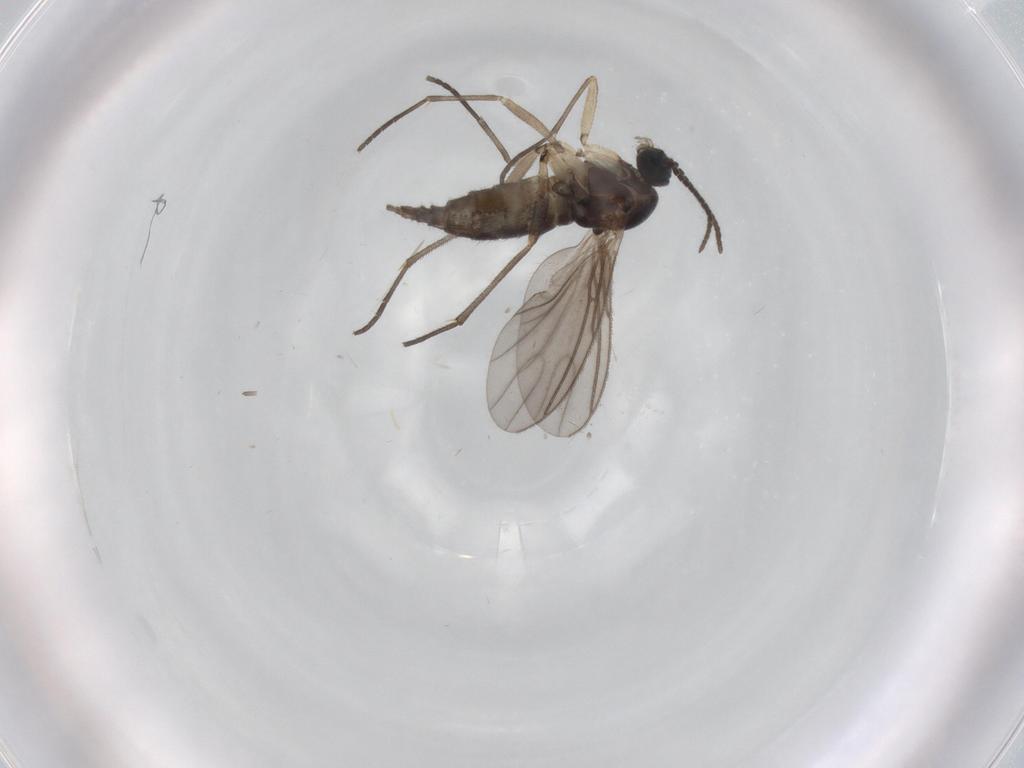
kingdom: Animalia
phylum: Arthropoda
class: Insecta
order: Diptera
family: Sciaridae
